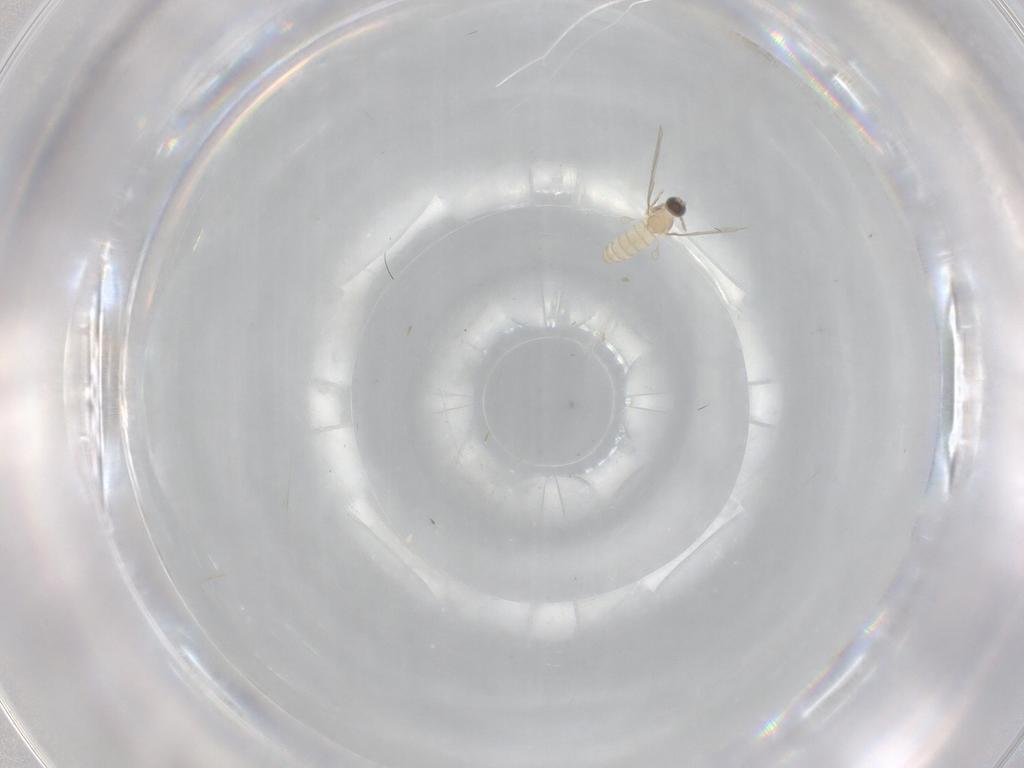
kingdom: Animalia
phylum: Arthropoda
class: Insecta
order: Diptera
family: Cecidomyiidae
